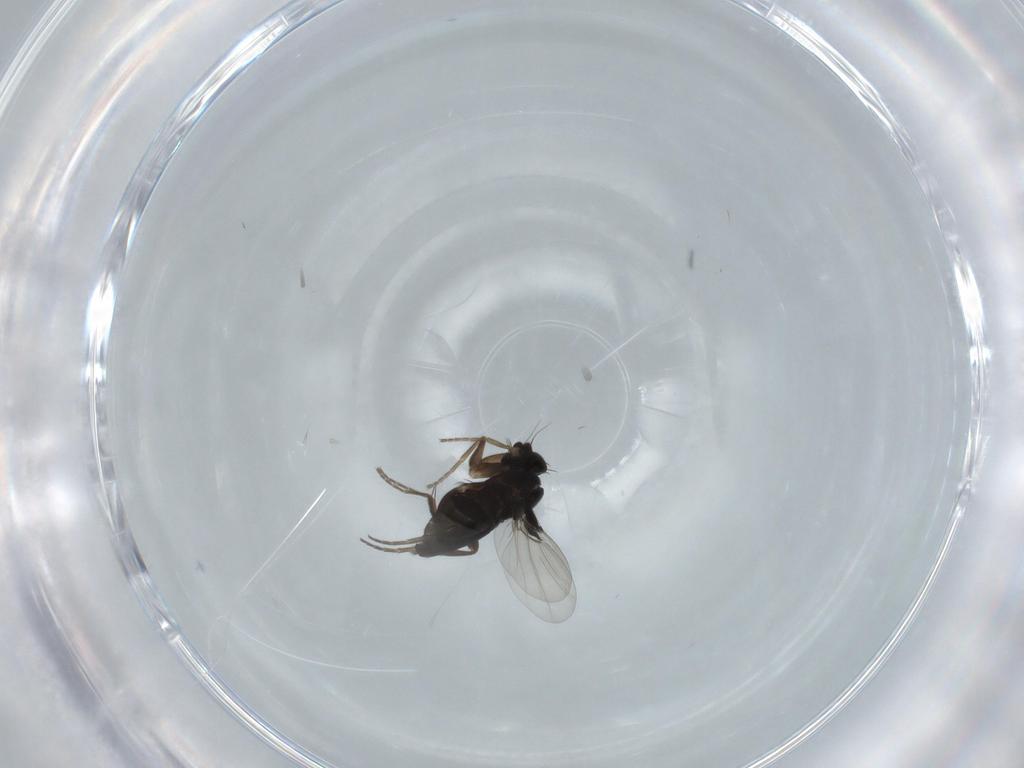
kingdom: Animalia
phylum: Arthropoda
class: Insecta
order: Diptera
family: Phoridae
